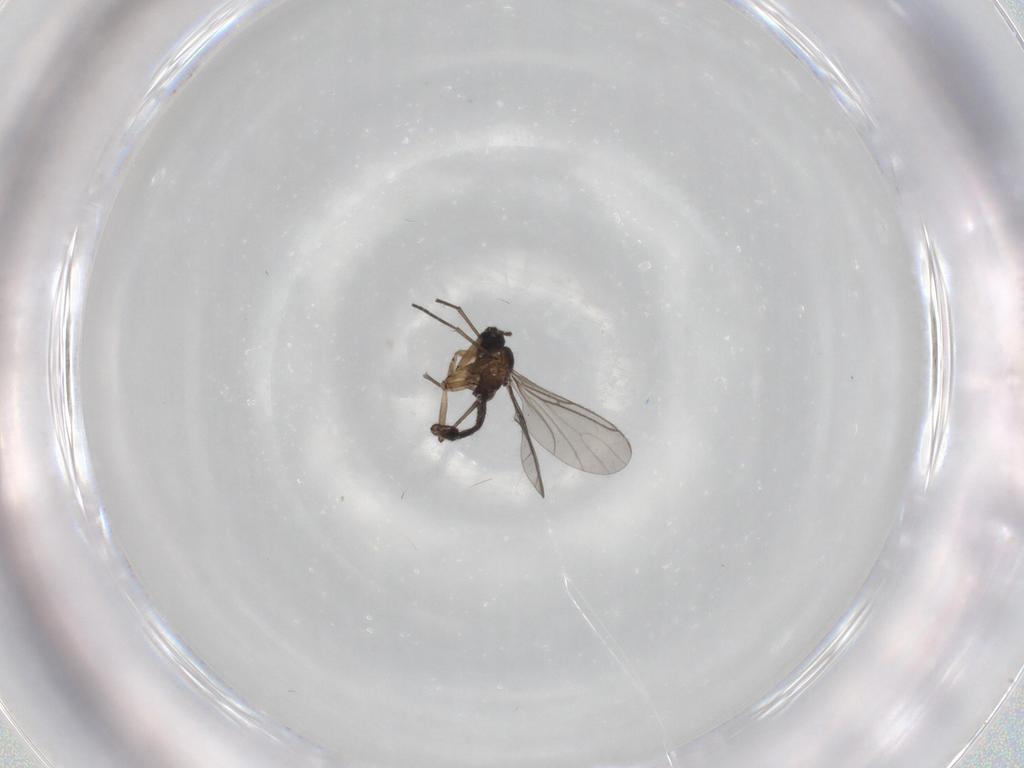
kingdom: Animalia
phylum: Arthropoda
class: Insecta
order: Diptera
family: Sciaridae
